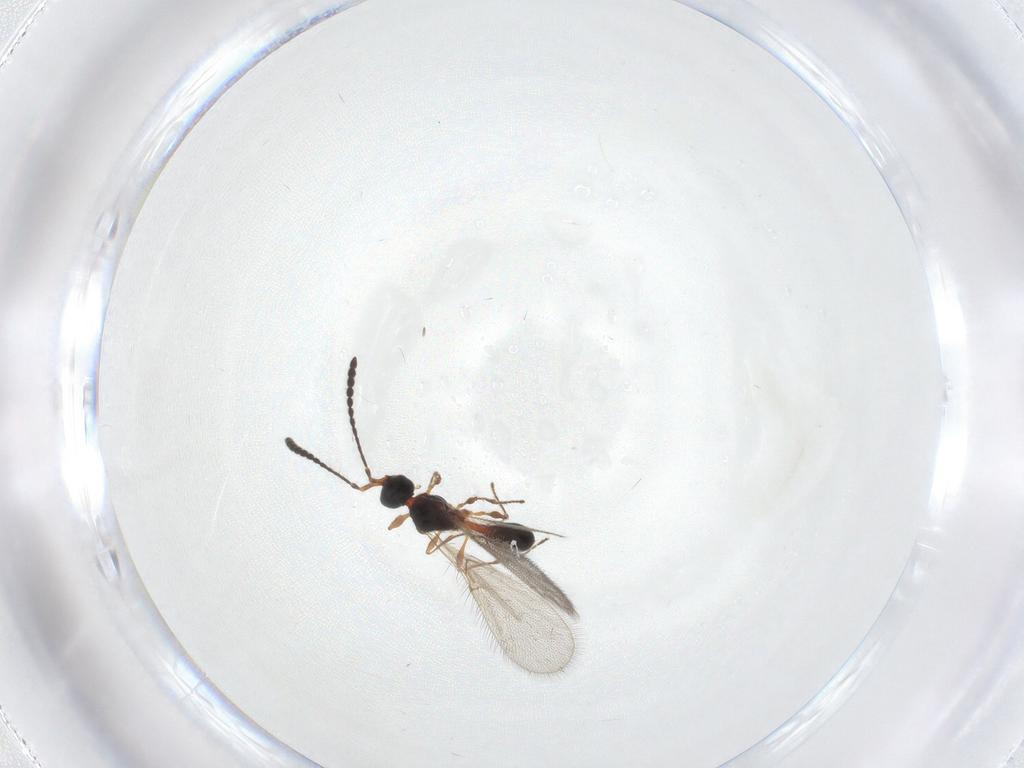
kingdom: Animalia
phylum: Arthropoda
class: Insecta
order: Hymenoptera
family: Diapriidae
